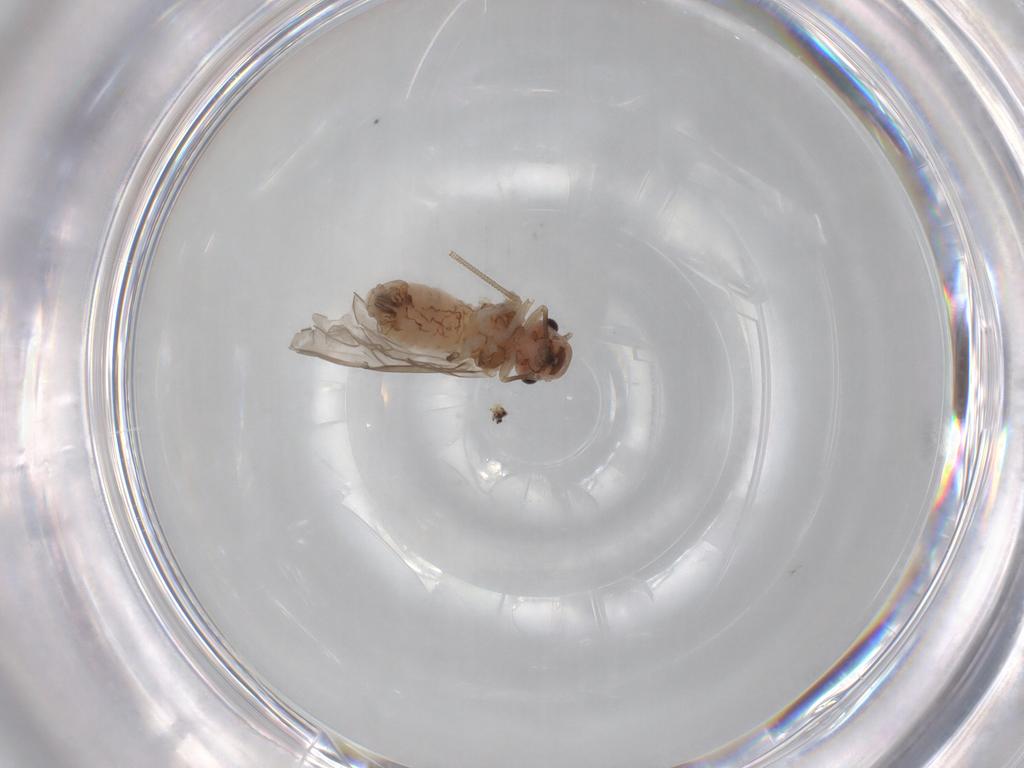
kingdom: Animalia
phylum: Arthropoda
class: Insecta
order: Psocodea
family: Peripsocidae
